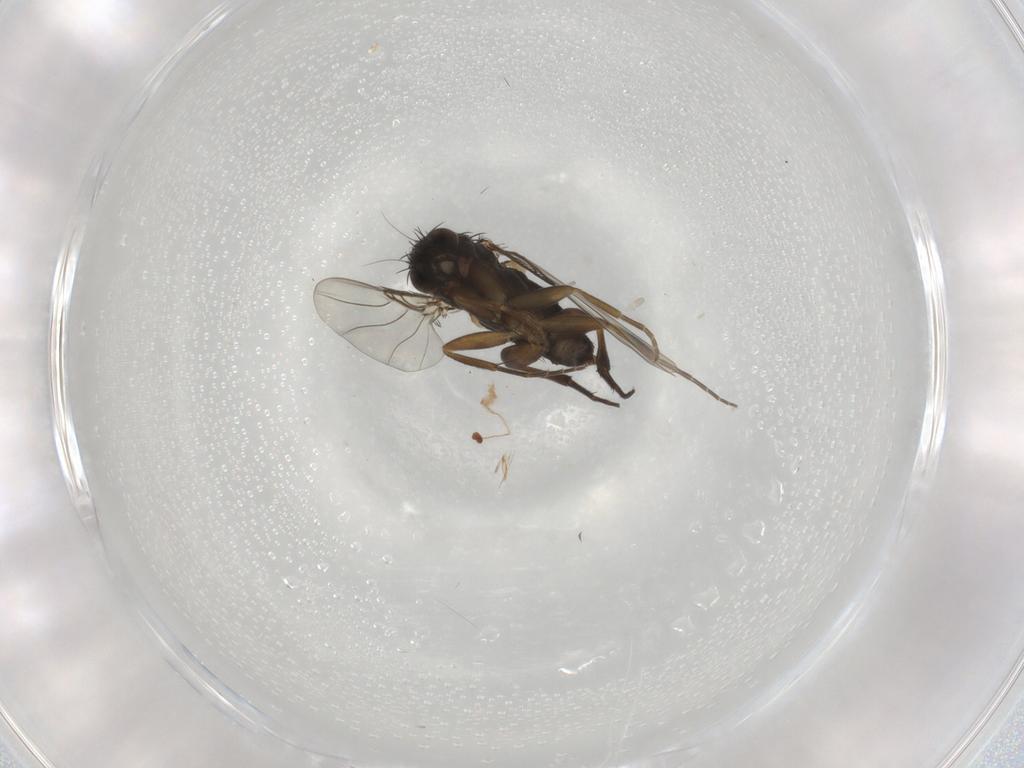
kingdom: Animalia
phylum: Arthropoda
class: Insecta
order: Diptera
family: Phoridae
